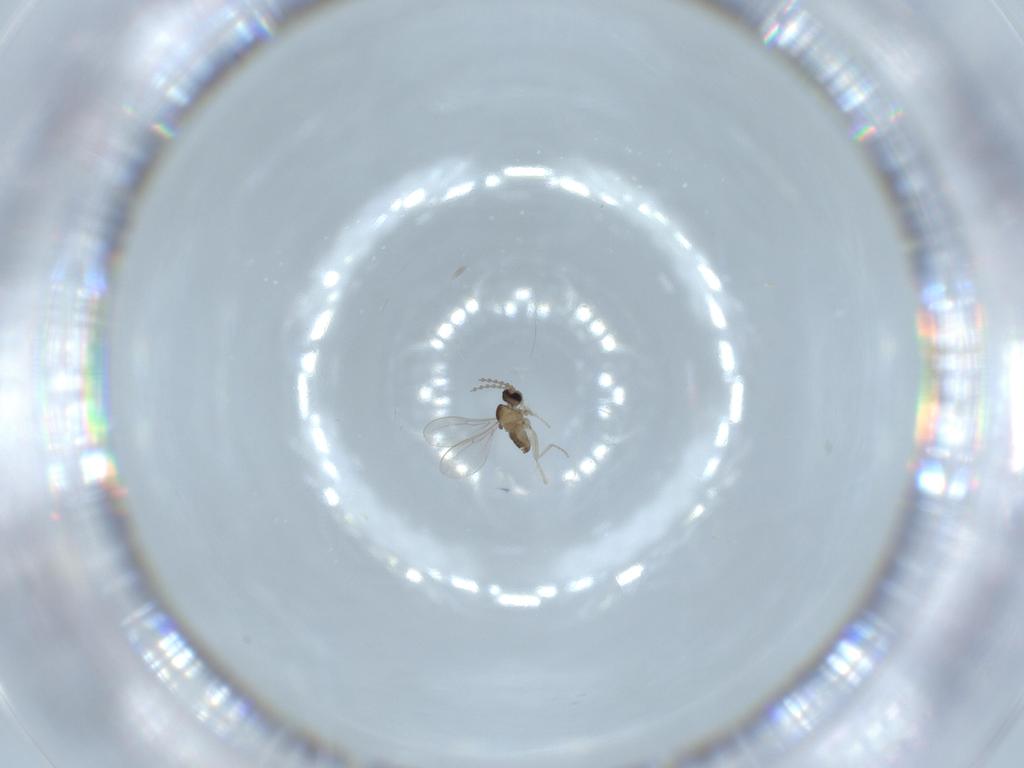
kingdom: Animalia
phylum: Arthropoda
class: Insecta
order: Diptera
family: Cecidomyiidae
